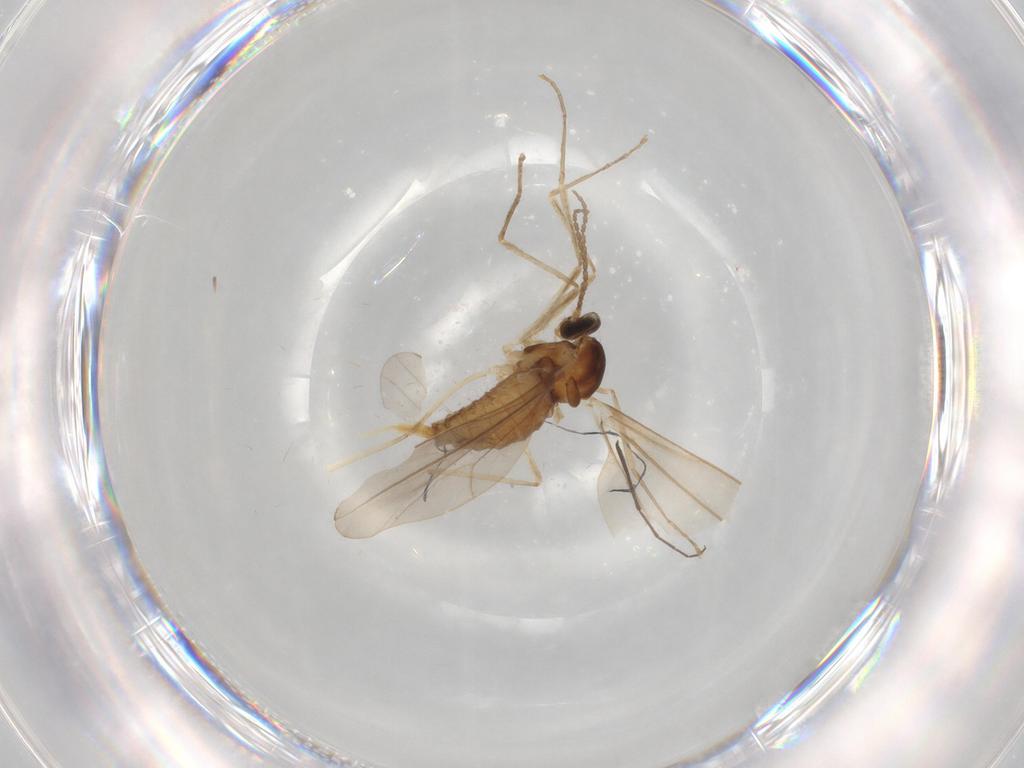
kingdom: Animalia
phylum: Arthropoda
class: Insecta
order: Diptera
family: Cecidomyiidae
